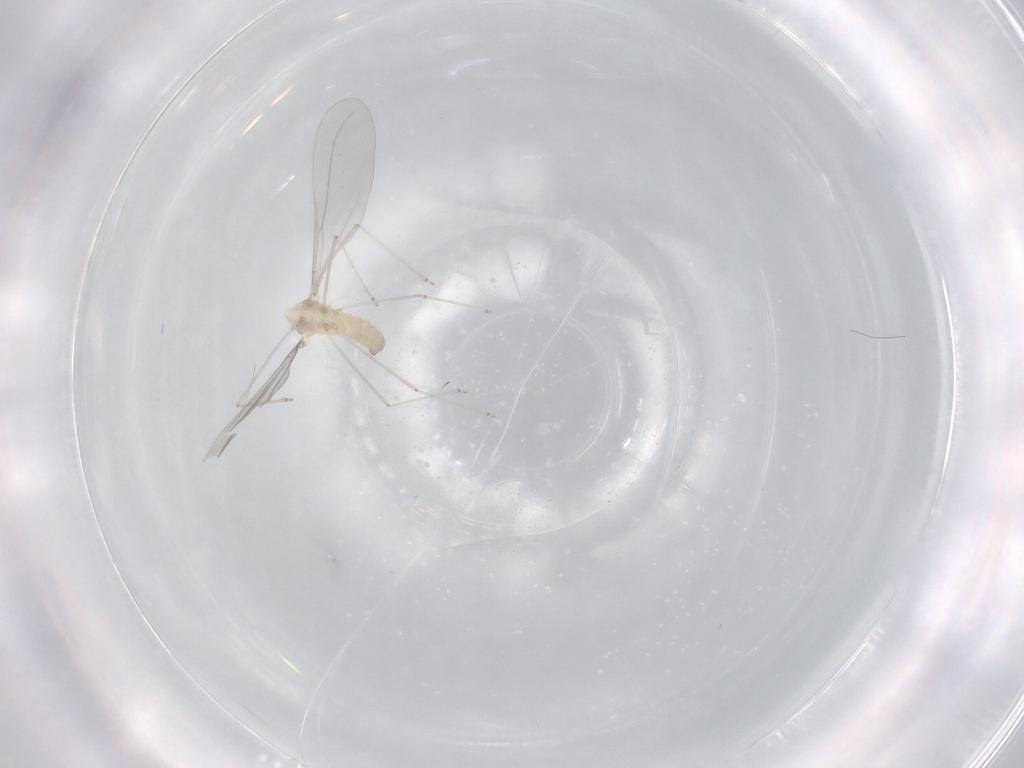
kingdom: Animalia
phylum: Arthropoda
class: Insecta
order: Diptera
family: Cecidomyiidae
